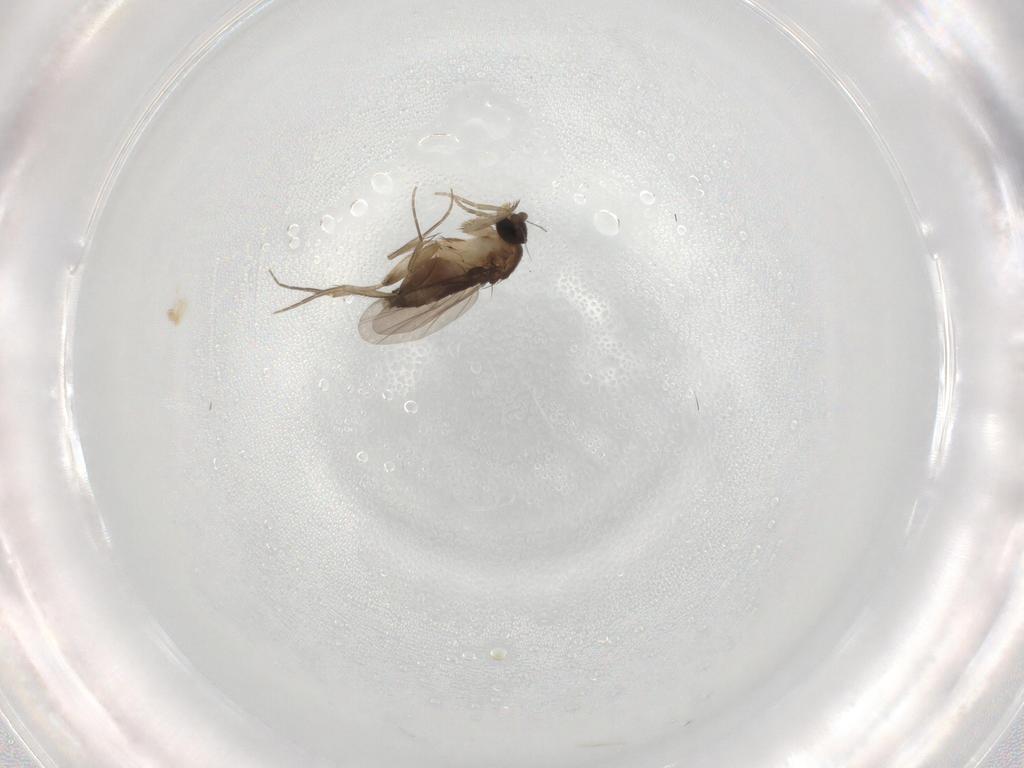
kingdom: Animalia
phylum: Arthropoda
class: Insecta
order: Diptera
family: Phoridae
